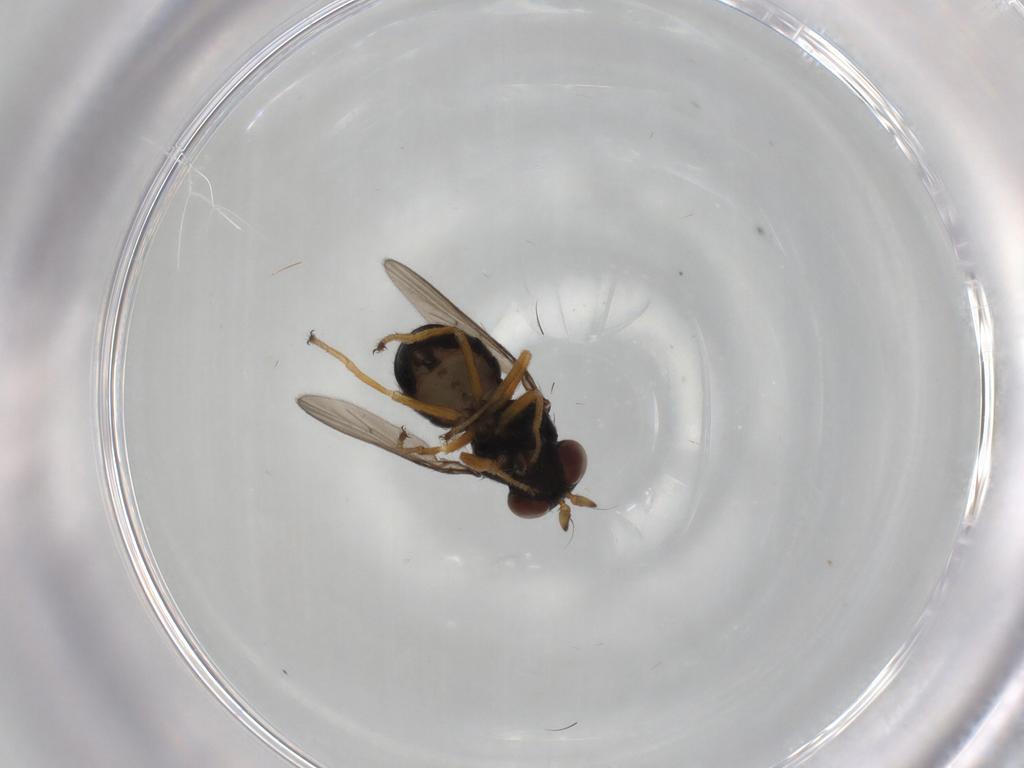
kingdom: Animalia
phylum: Arthropoda
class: Insecta
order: Diptera
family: Ephydridae
